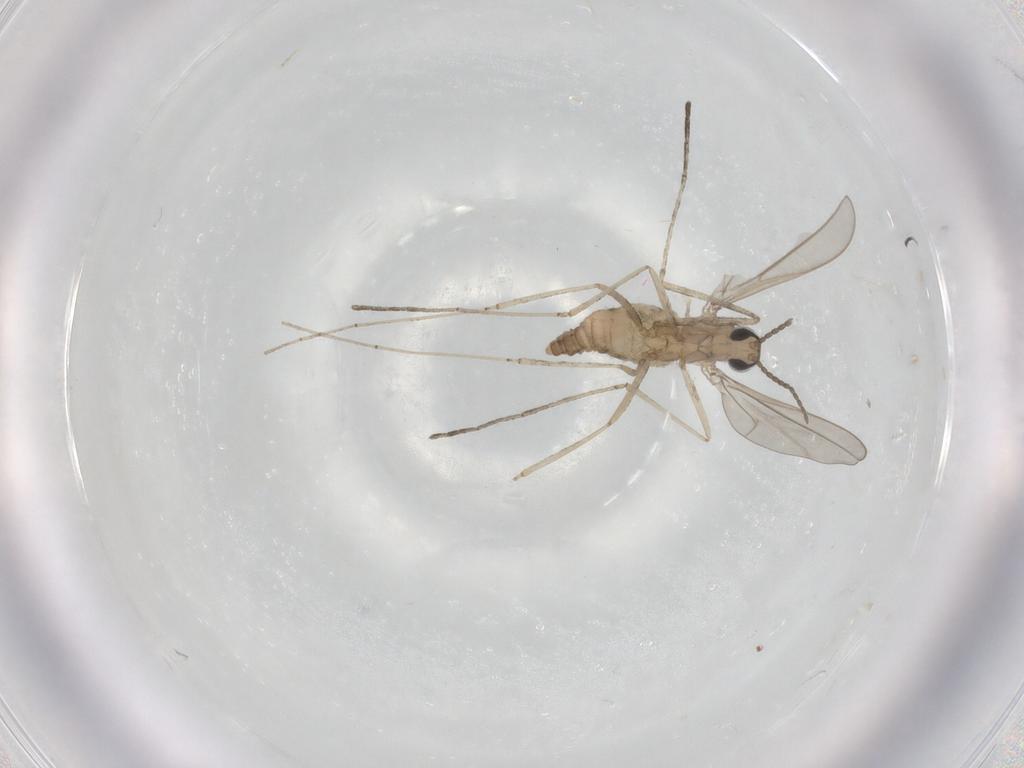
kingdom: Animalia
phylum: Arthropoda
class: Insecta
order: Diptera
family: Cecidomyiidae
